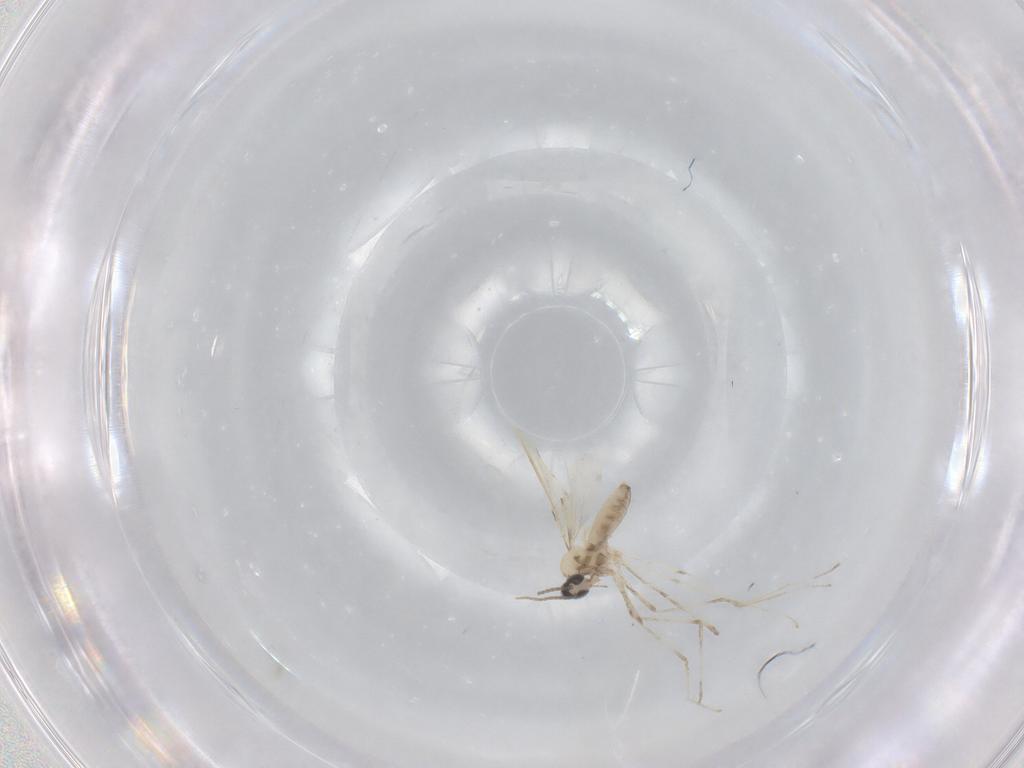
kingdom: Animalia
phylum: Arthropoda
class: Insecta
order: Diptera
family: Cecidomyiidae
